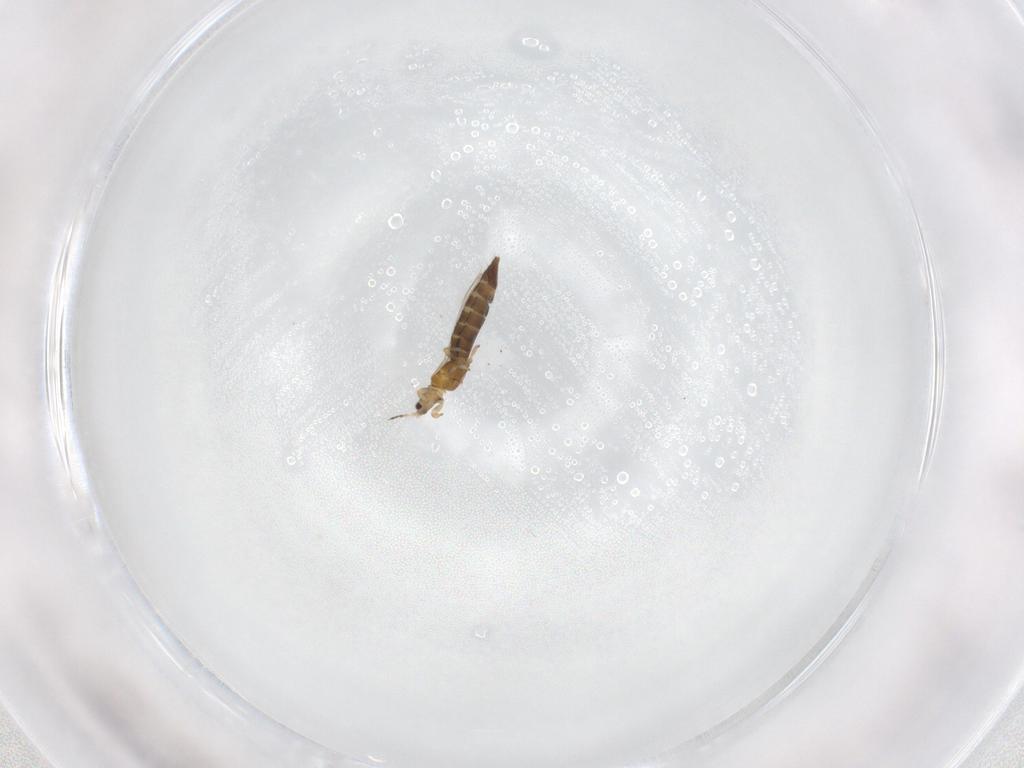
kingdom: Animalia
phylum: Arthropoda
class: Insecta
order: Thysanoptera
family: Thripidae
